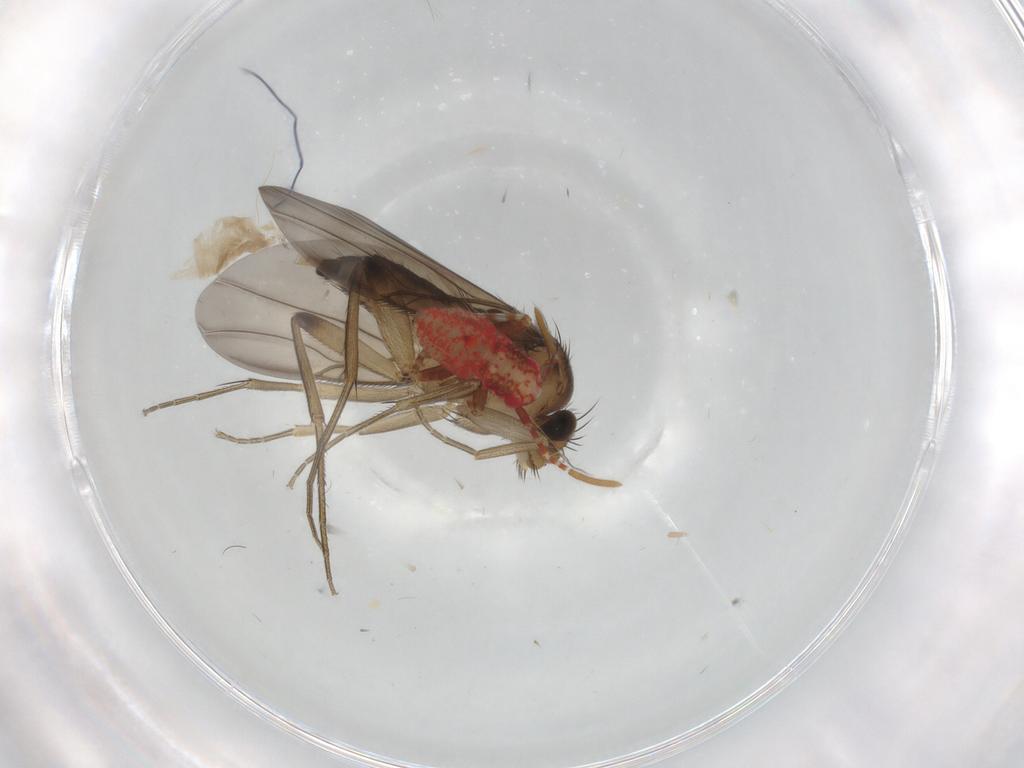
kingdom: Animalia
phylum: Arthropoda
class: Insecta
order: Diptera
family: Phoridae
